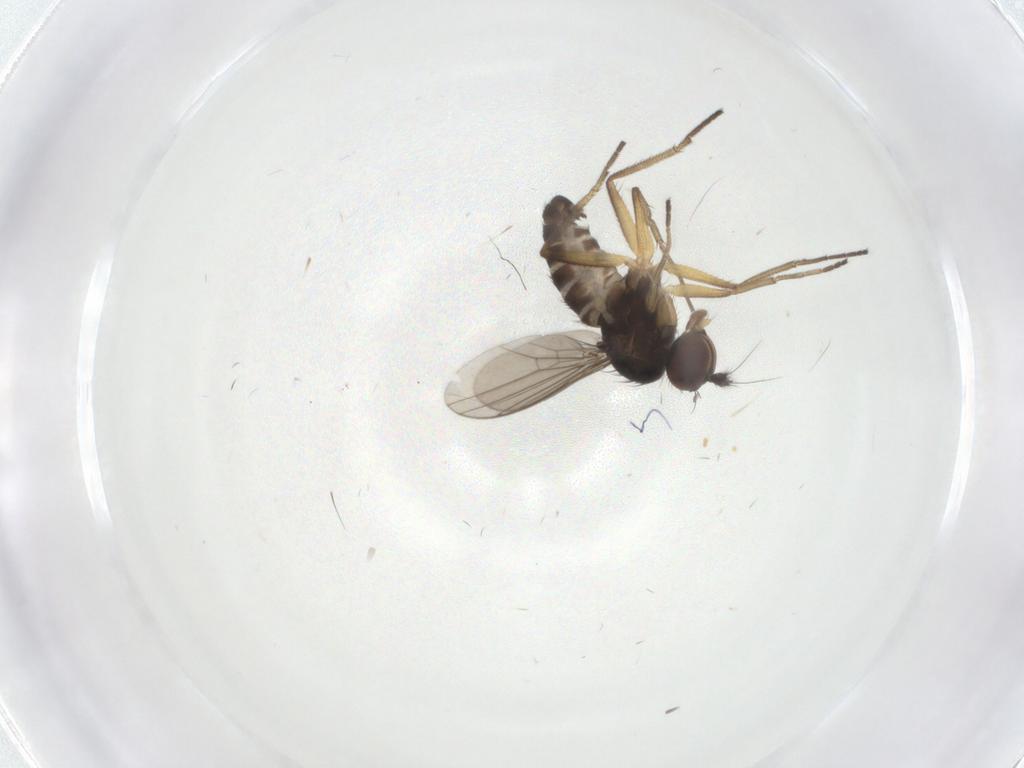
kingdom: Animalia
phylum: Arthropoda
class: Insecta
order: Diptera
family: Dolichopodidae
